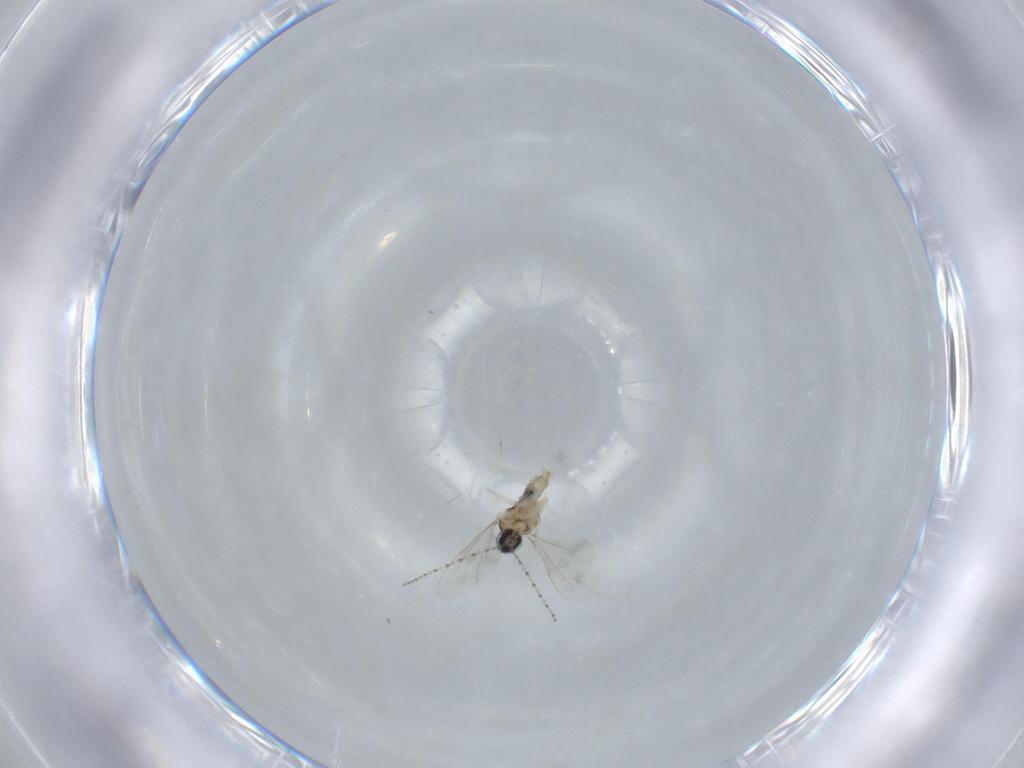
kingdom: Animalia
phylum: Arthropoda
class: Insecta
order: Diptera
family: Cecidomyiidae
